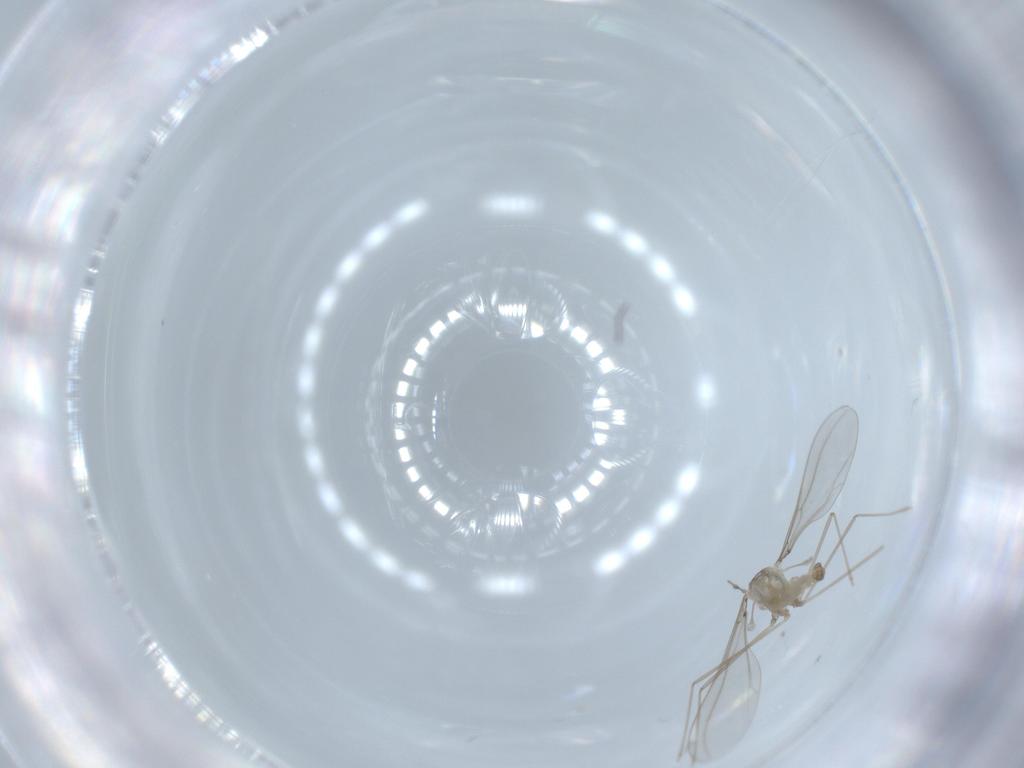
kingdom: Animalia
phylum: Arthropoda
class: Insecta
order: Diptera
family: Cecidomyiidae
